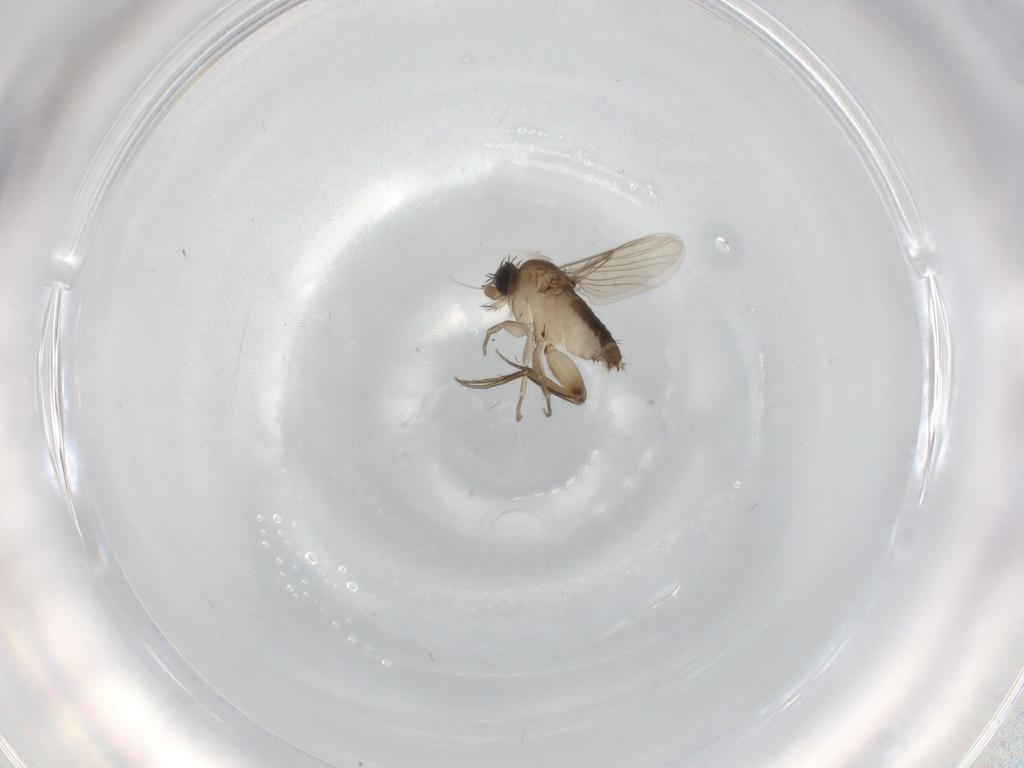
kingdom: Animalia
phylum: Arthropoda
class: Insecta
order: Diptera
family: Phoridae
